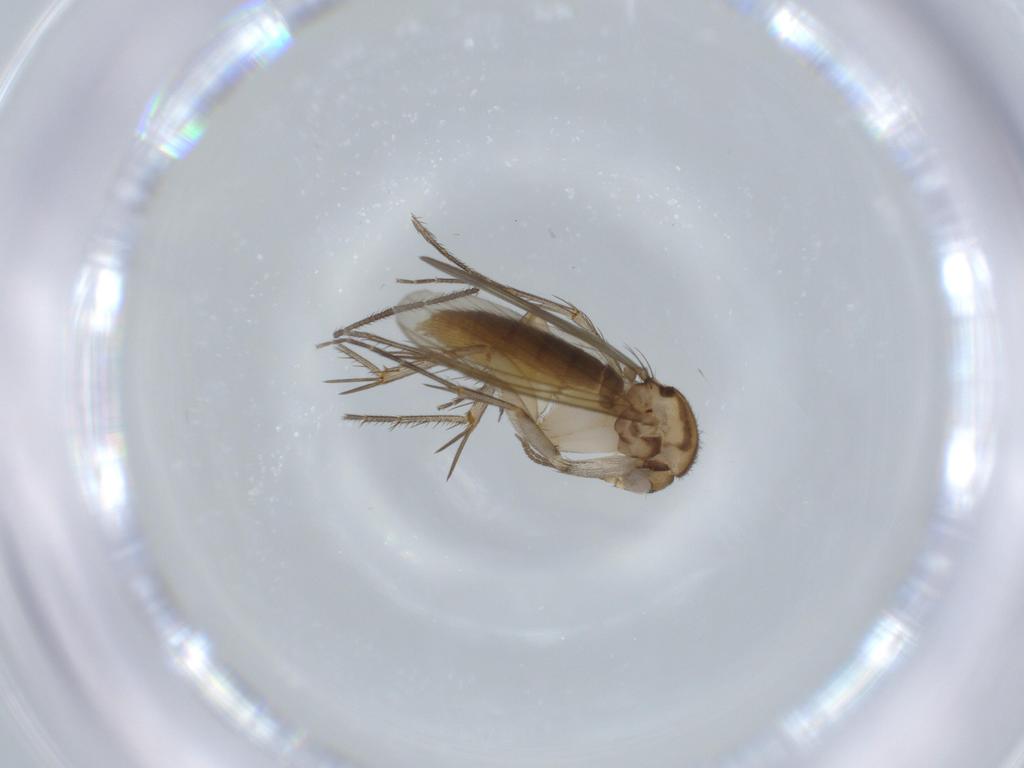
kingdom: Animalia
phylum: Arthropoda
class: Insecta
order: Diptera
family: Mycetophilidae
